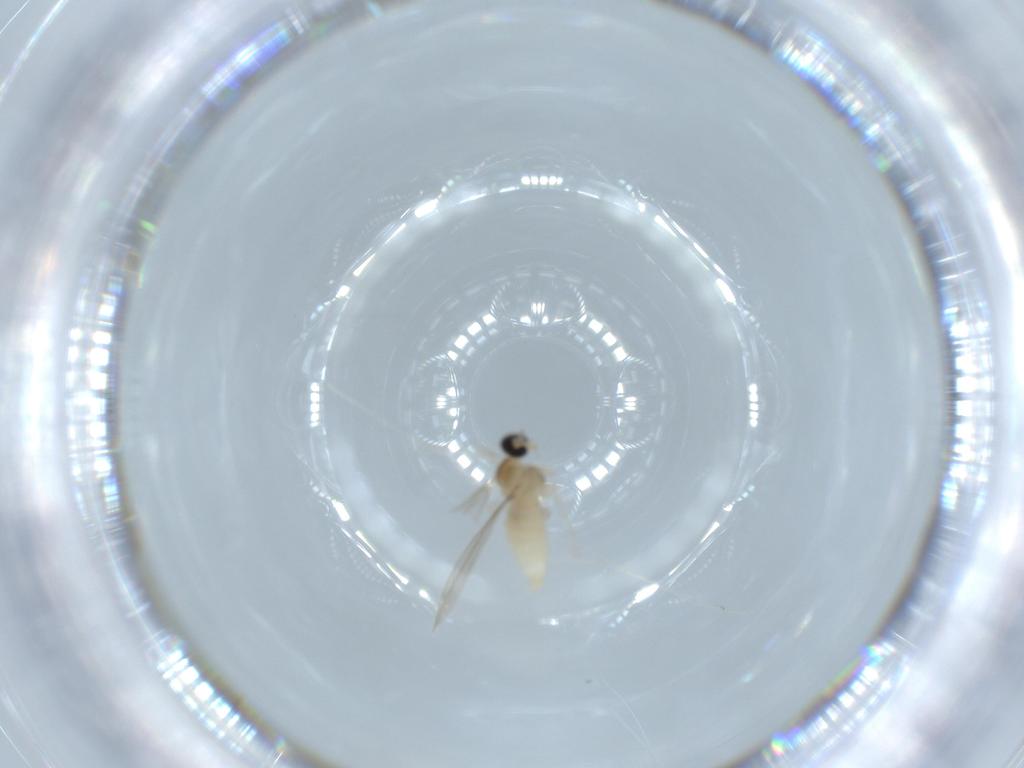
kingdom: Animalia
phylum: Arthropoda
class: Insecta
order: Diptera
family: Cecidomyiidae
